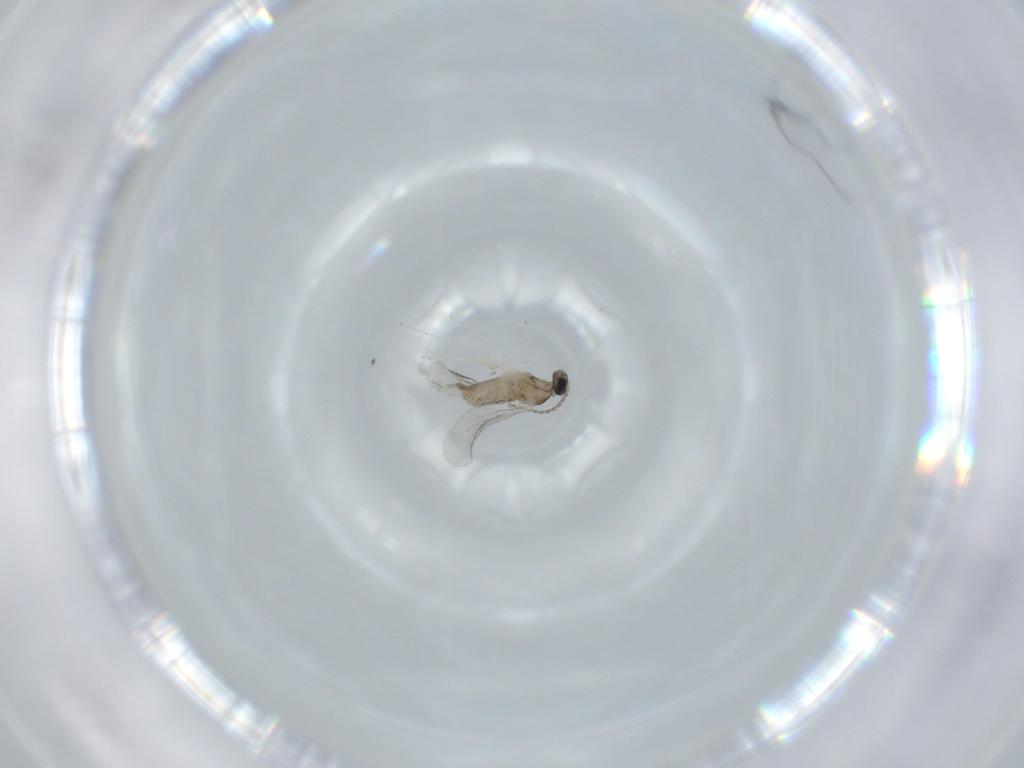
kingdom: Animalia
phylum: Arthropoda
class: Insecta
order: Diptera
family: Cecidomyiidae
